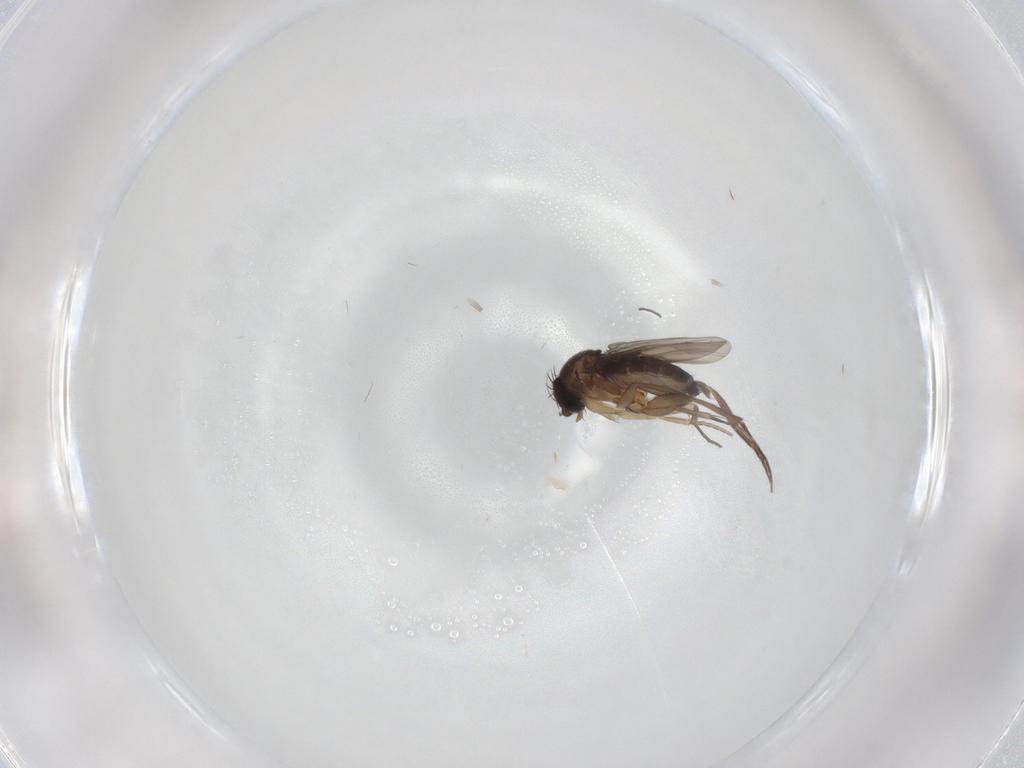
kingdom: Animalia
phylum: Arthropoda
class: Insecta
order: Diptera
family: Phoridae
